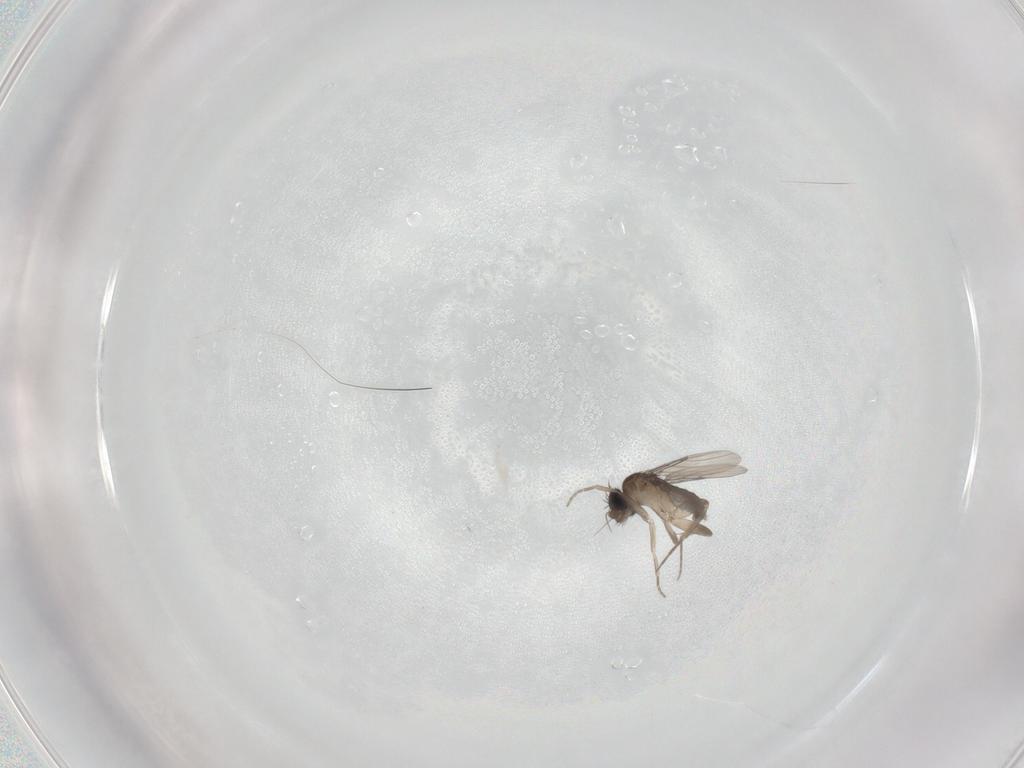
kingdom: Animalia
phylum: Arthropoda
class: Insecta
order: Diptera
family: Phoridae
